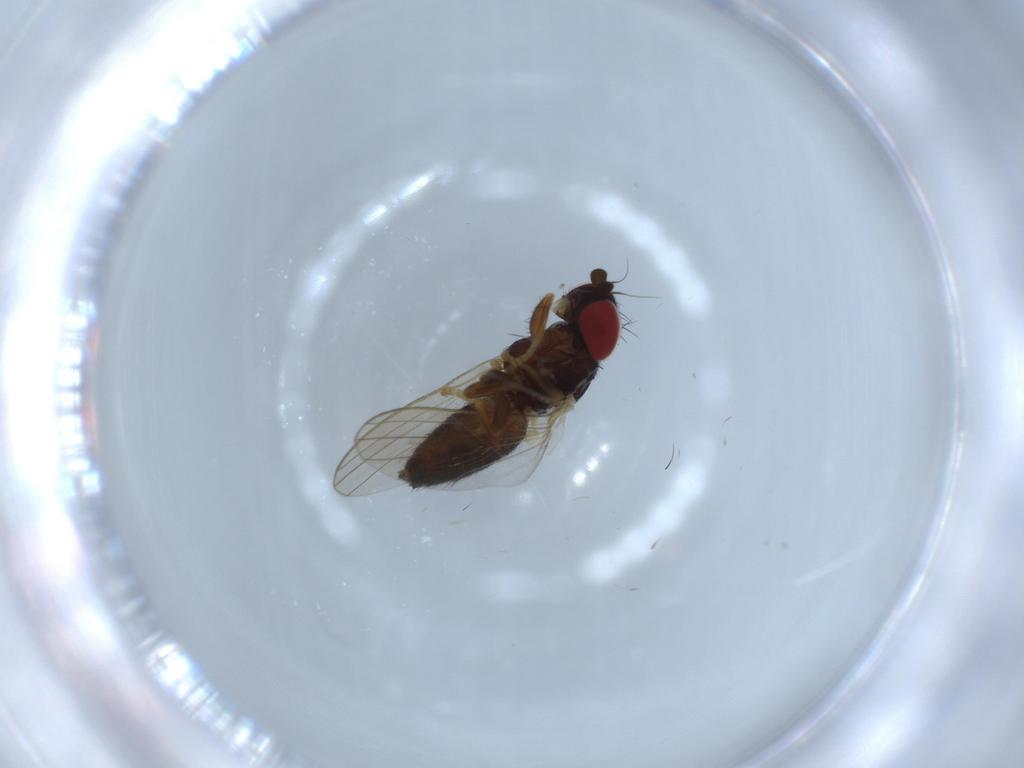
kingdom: Animalia
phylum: Arthropoda
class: Insecta
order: Diptera
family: Chamaemyiidae
